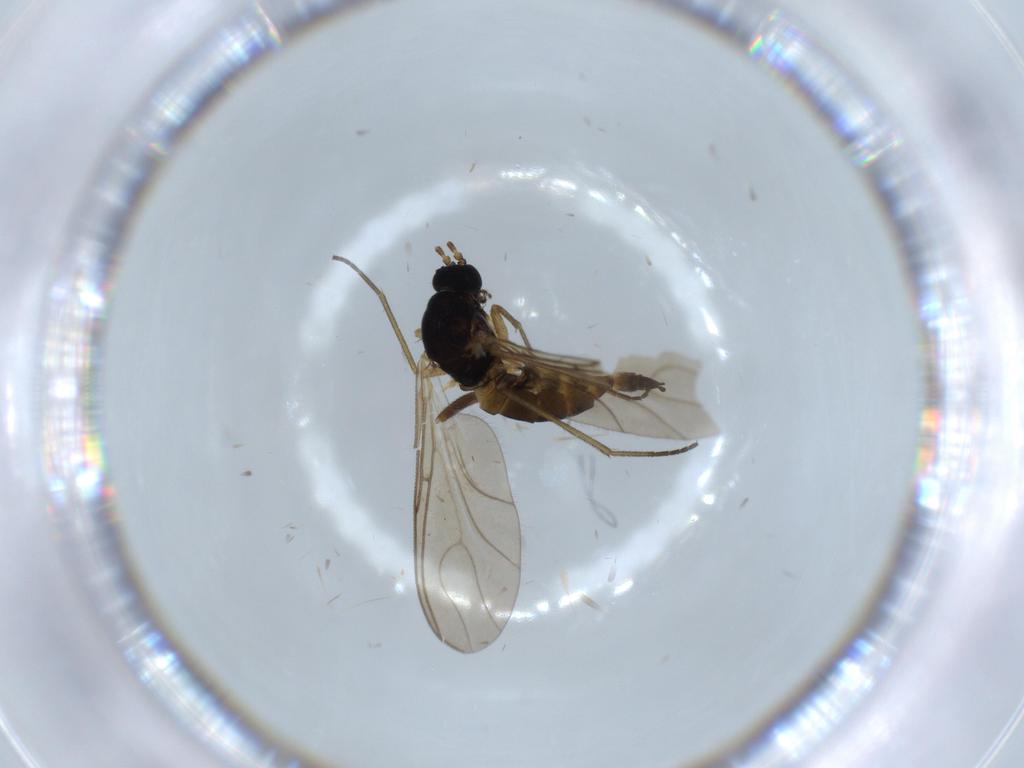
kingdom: Animalia
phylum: Arthropoda
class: Insecta
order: Diptera
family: Sciaridae
